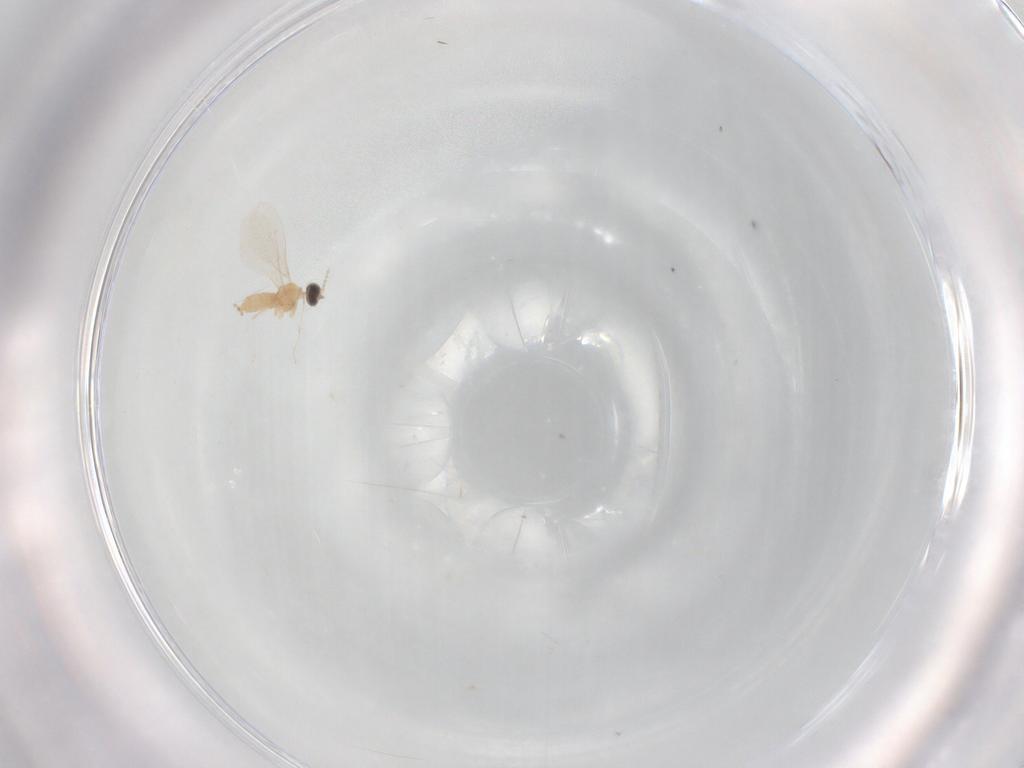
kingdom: Animalia
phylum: Arthropoda
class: Insecta
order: Diptera
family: Cecidomyiidae
